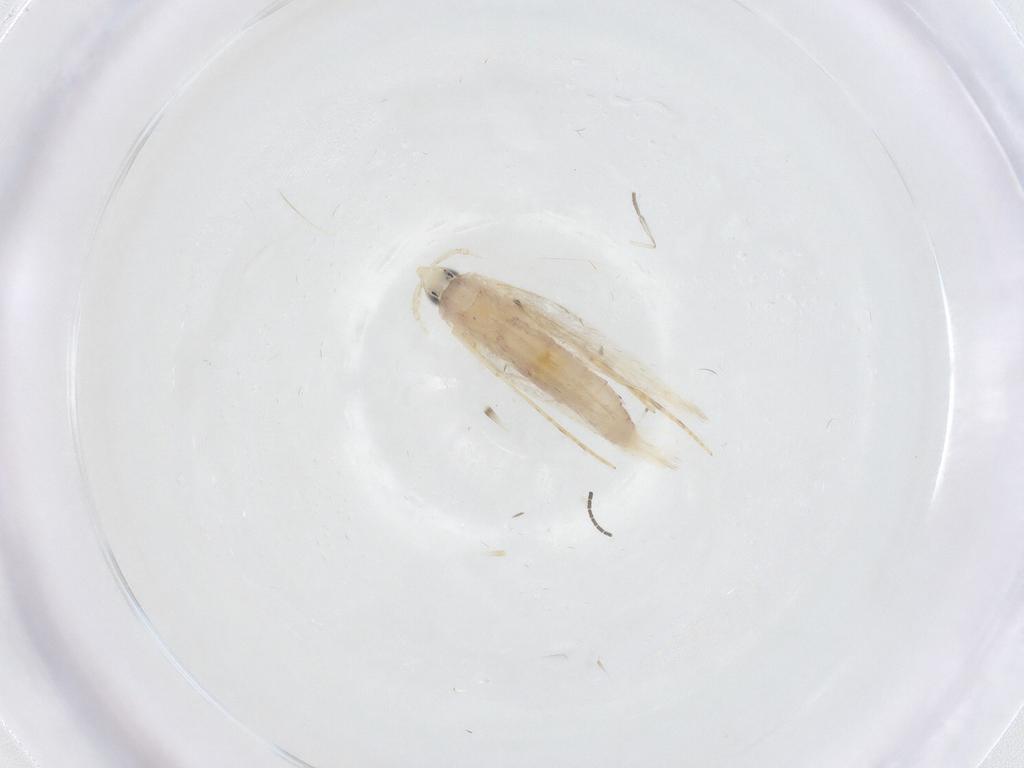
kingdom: Animalia
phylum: Arthropoda
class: Insecta
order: Lepidoptera
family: Tineidae
